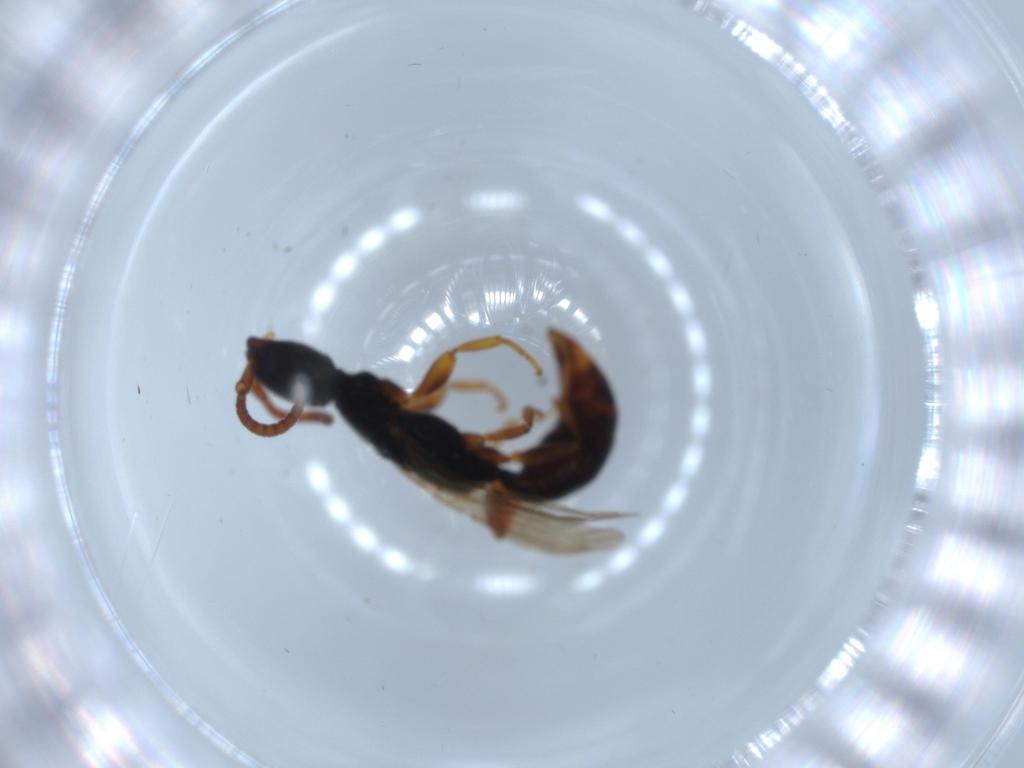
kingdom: Animalia
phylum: Arthropoda
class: Insecta
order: Hymenoptera
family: Bethylidae
